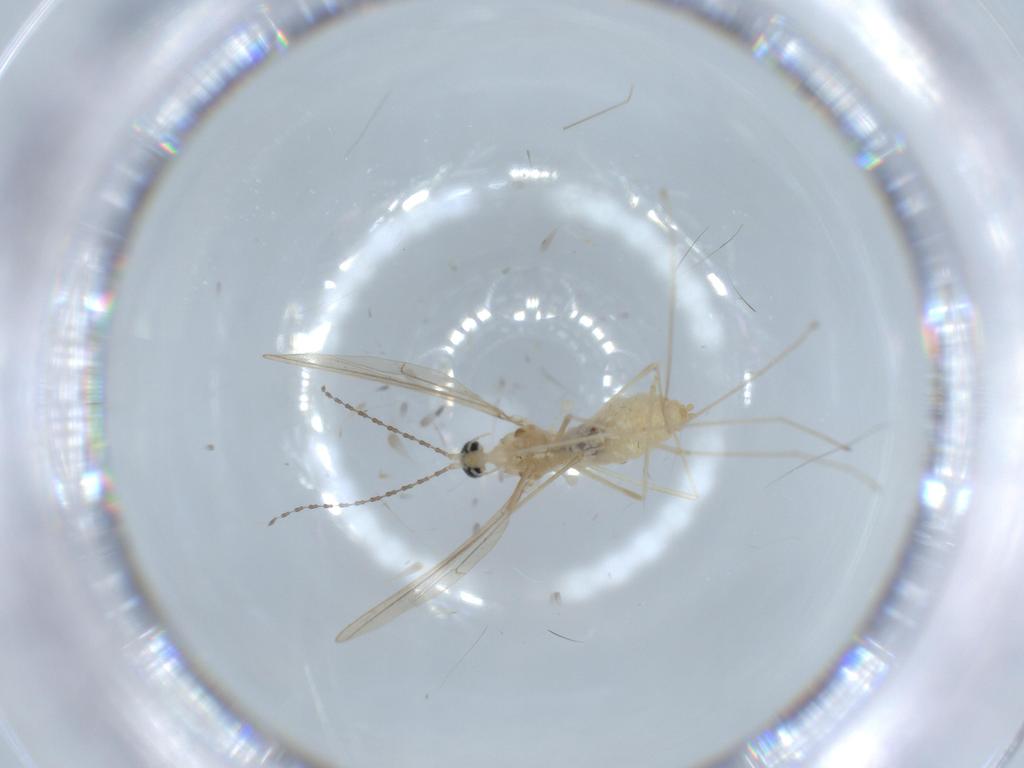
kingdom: Animalia
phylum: Arthropoda
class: Insecta
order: Diptera
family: Cecidomyiidae
